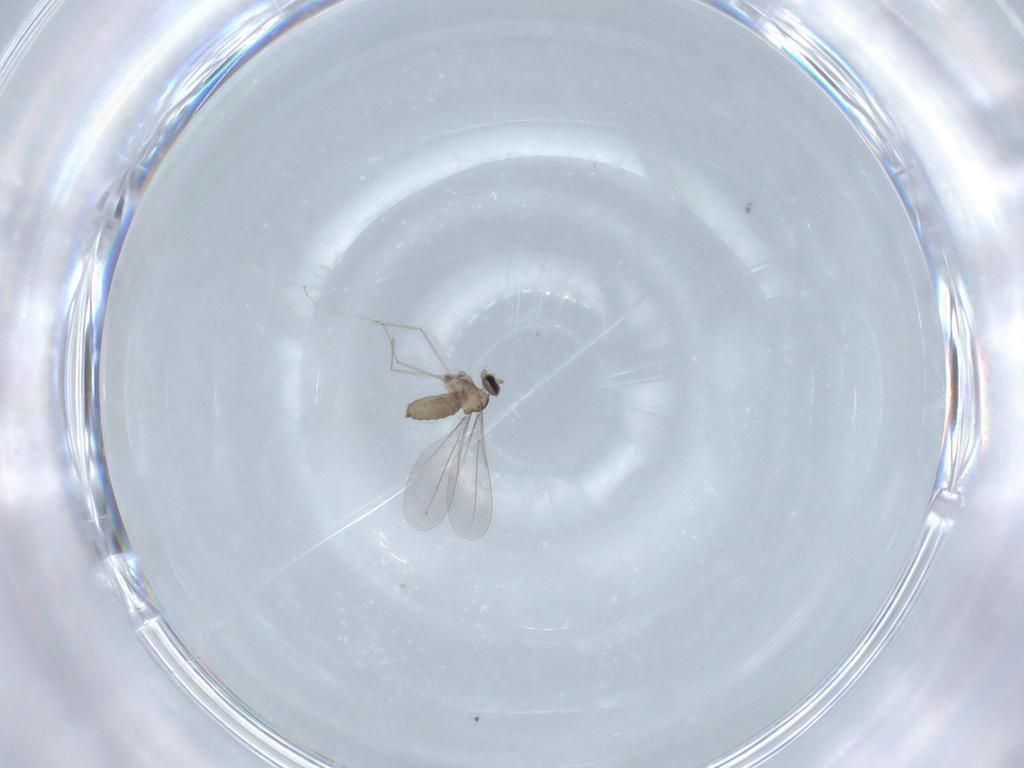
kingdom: Animalia
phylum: Arthropoda
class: Insecta
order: Diptera
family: Cecidomyiidae
